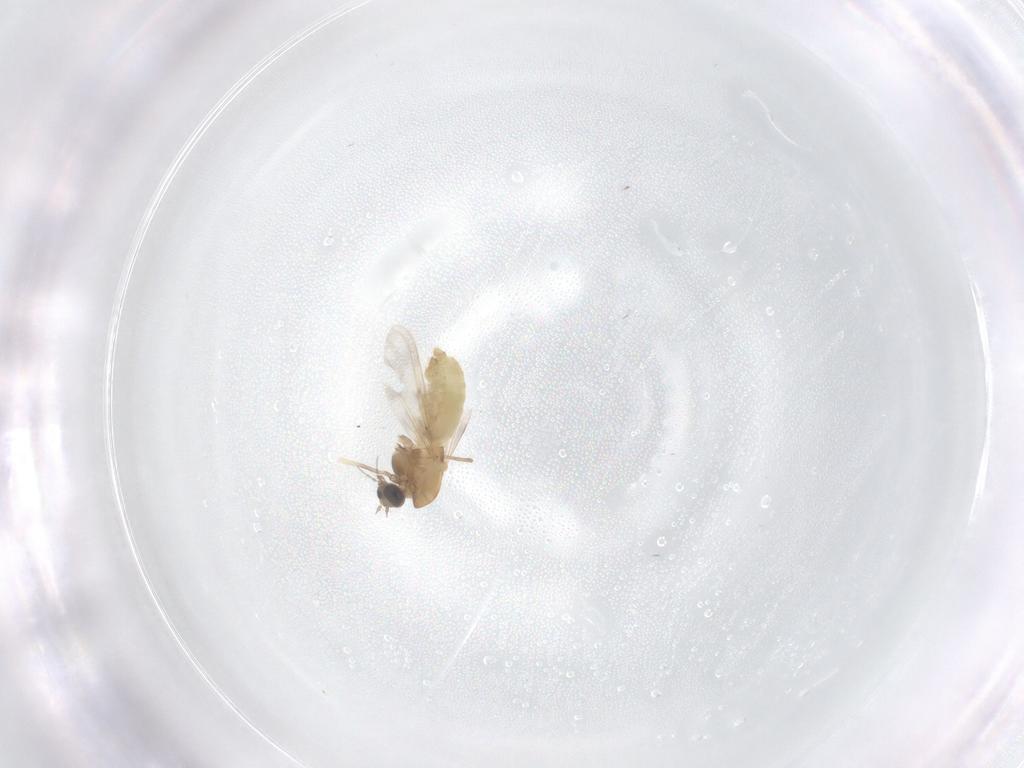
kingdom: Animalia
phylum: Arthropoda
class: Insecta
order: Diptera
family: Chironomidae
